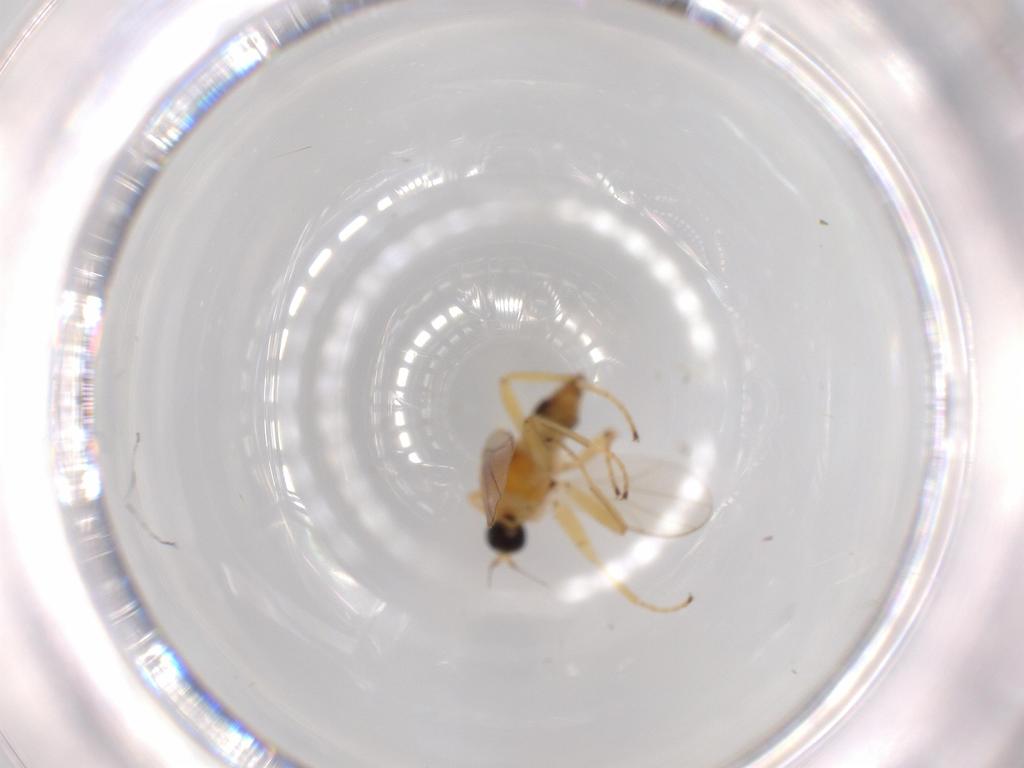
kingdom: Animalia
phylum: Arthropoda
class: Insecta
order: Diptera
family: Hybotidae
